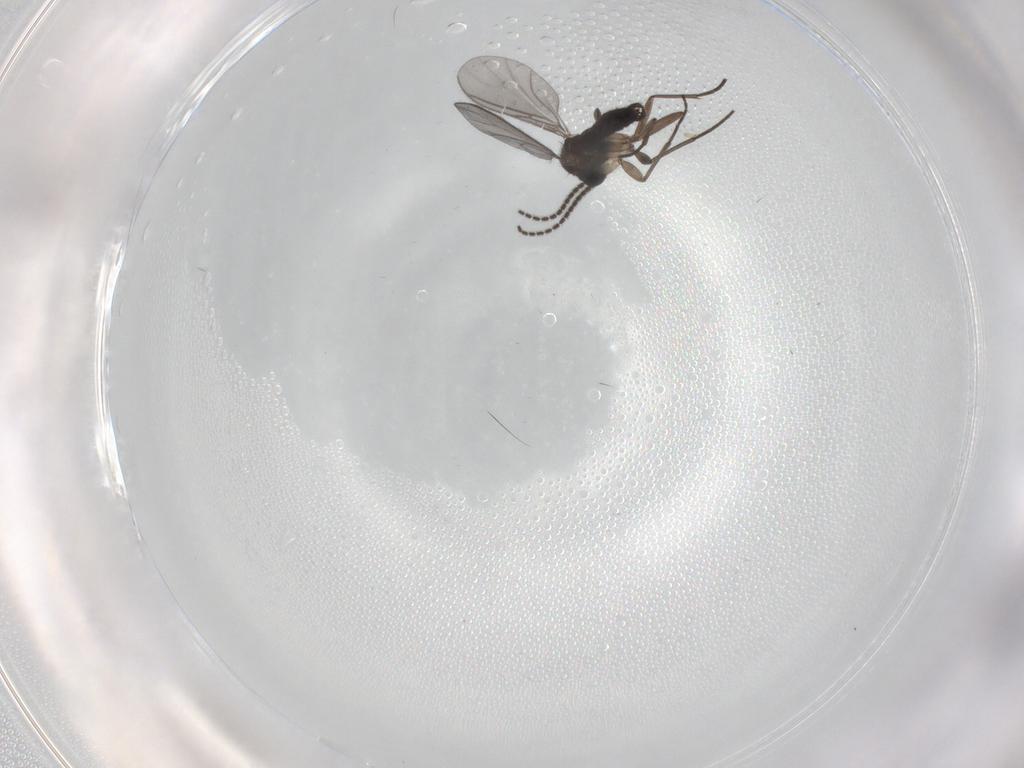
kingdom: Animalia
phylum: Arthropoda
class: Insecta
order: Diptera
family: Sciaridae
